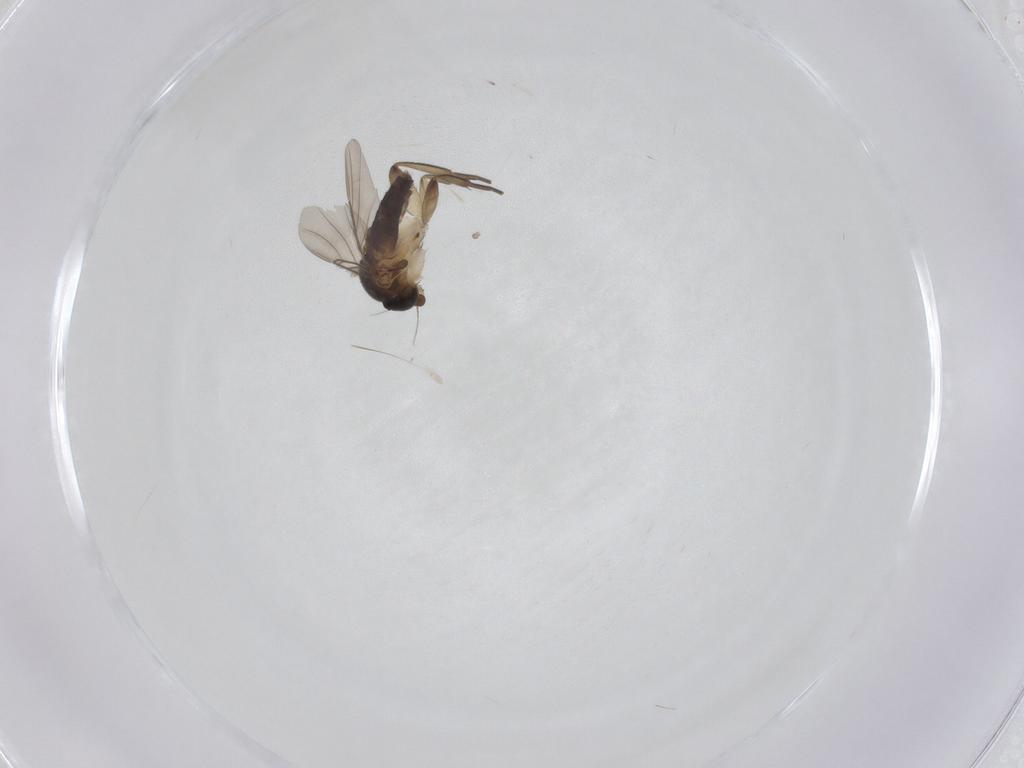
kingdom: Animalia
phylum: Arthropoda
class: Insecta
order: Diptera
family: Phoridae
